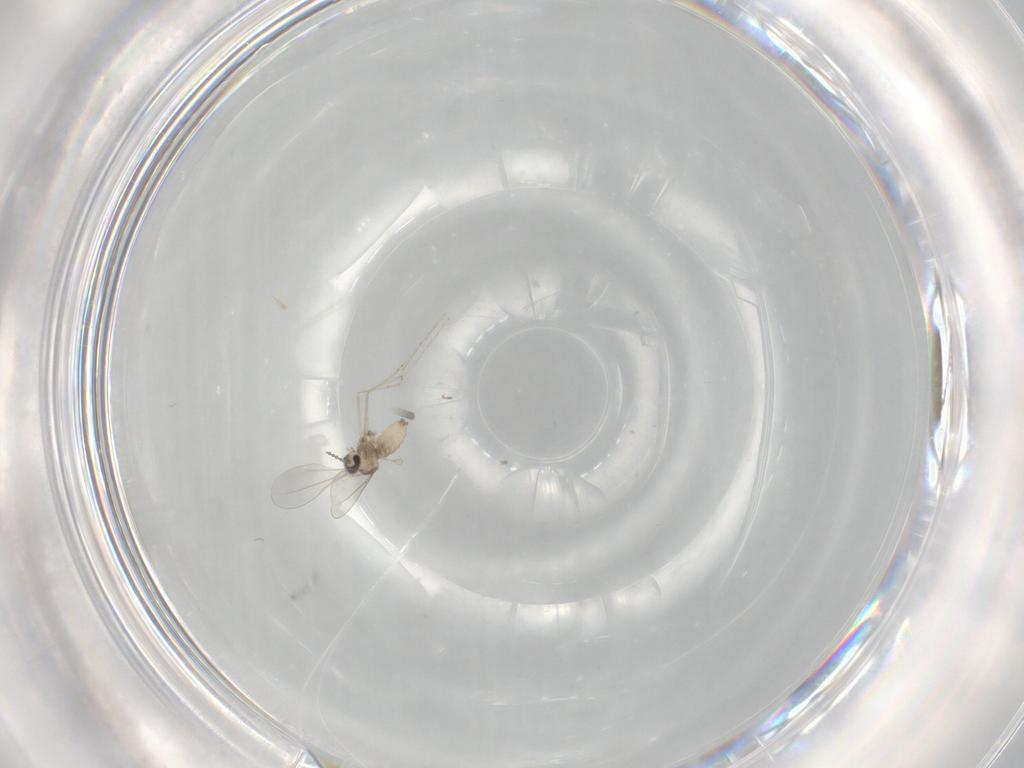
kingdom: Animalia
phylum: Arthropoda
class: Insecta
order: Diptera
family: Cecidomyiidae
